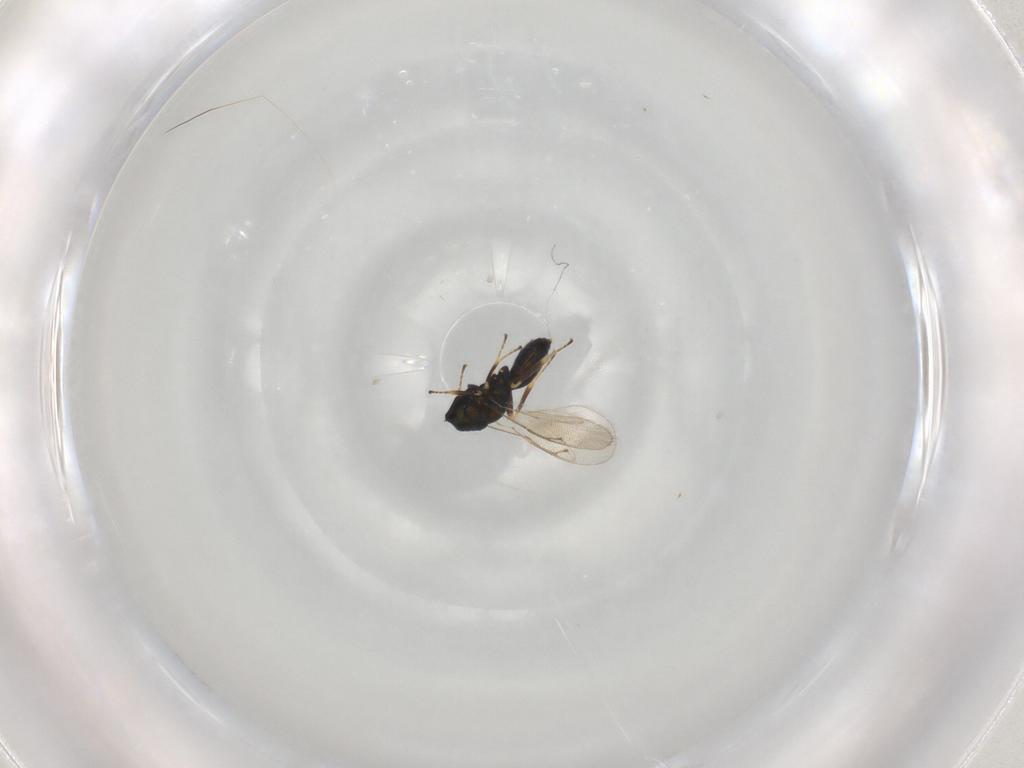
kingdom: Animalia
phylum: Arthropoda
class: Insecta
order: Hymenoptera
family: Pteromalidae
